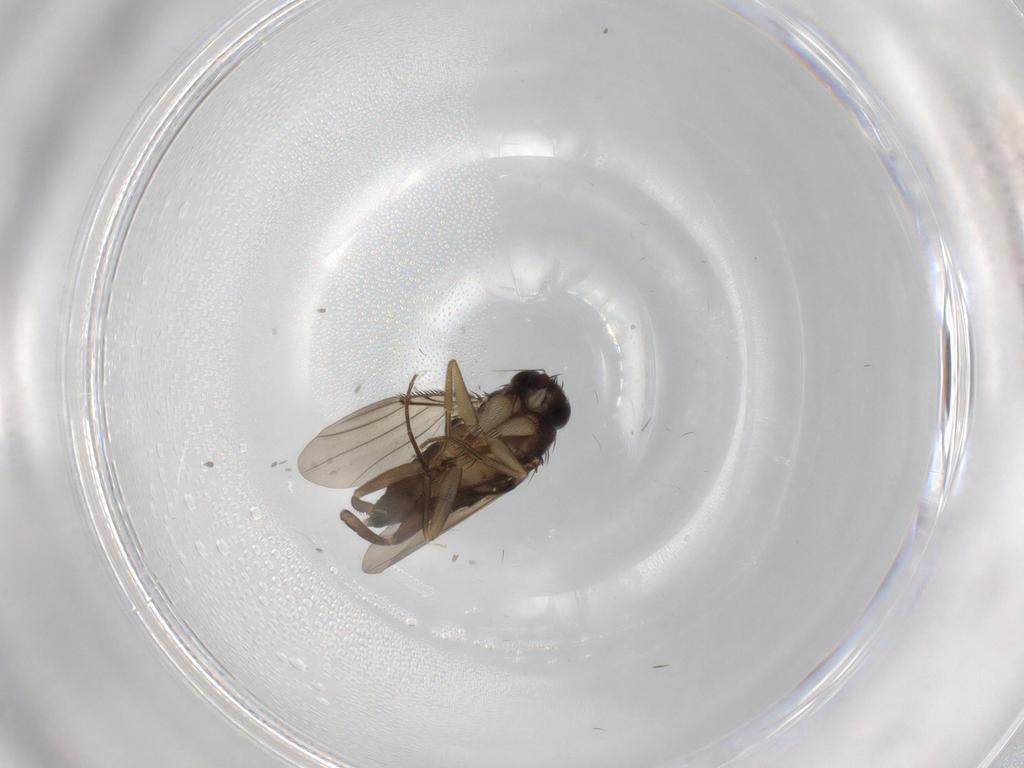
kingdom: Animalia
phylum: Arthropoda
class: Insecta
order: Diptera
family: Phoridae
